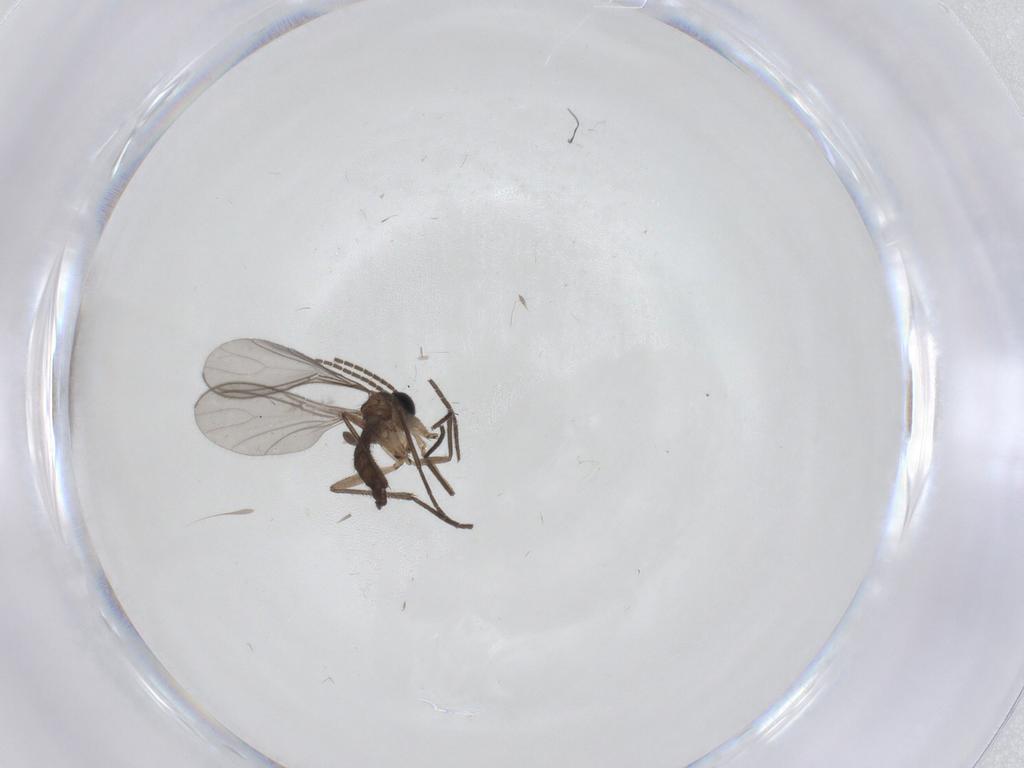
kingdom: Animalia
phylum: Arthropoda
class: Insecta
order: Diptera
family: Sciaridae
